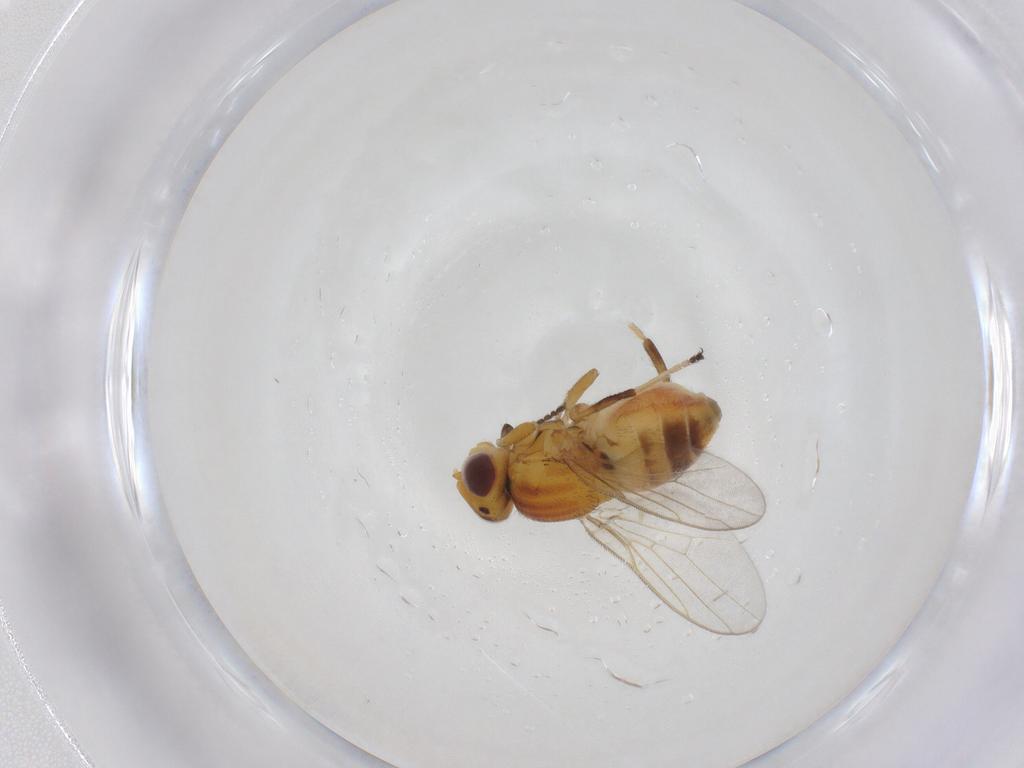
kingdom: Animalia
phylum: Arthropoda
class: Insecta
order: Diptera
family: Chloropidae
